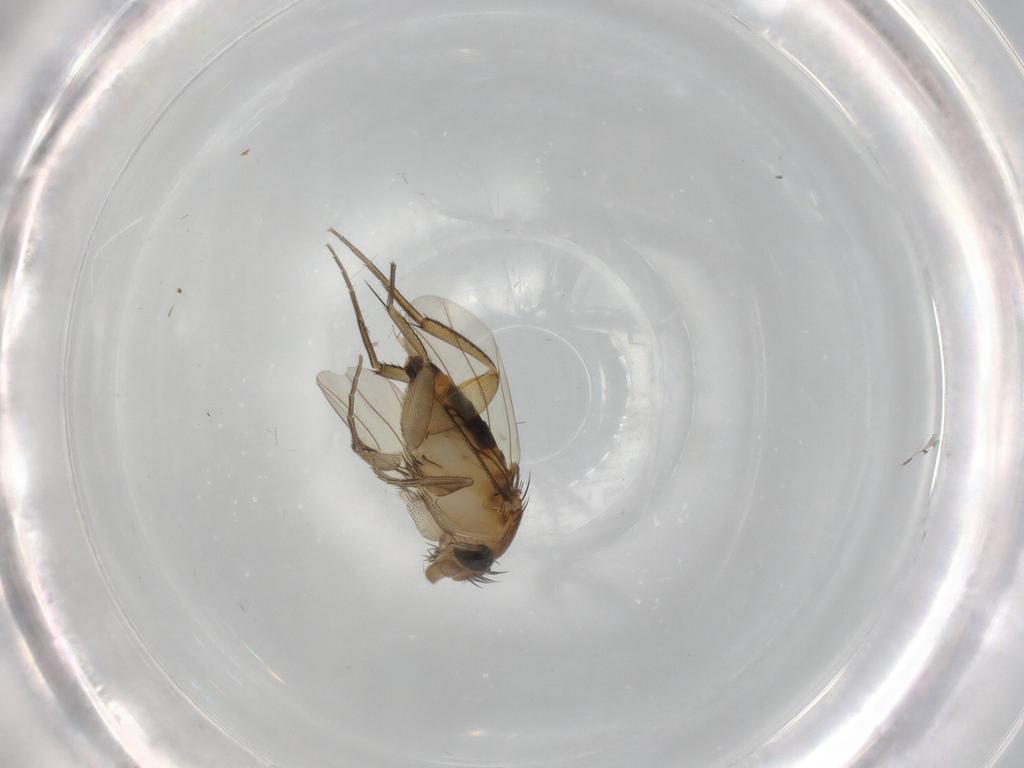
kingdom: Animalia
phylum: Arthropoda
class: Insecta
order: Diptera
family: Phoridae
